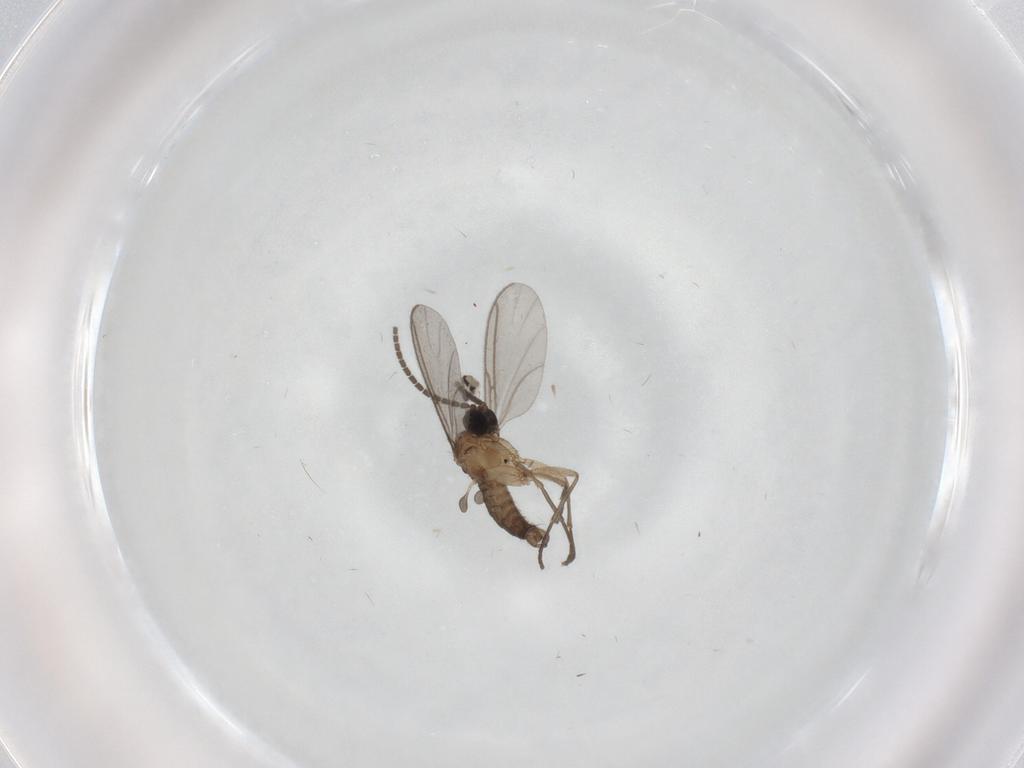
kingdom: Animalia
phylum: Arthropoda
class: Insecta
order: Diptera
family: Cecidomyiidae
